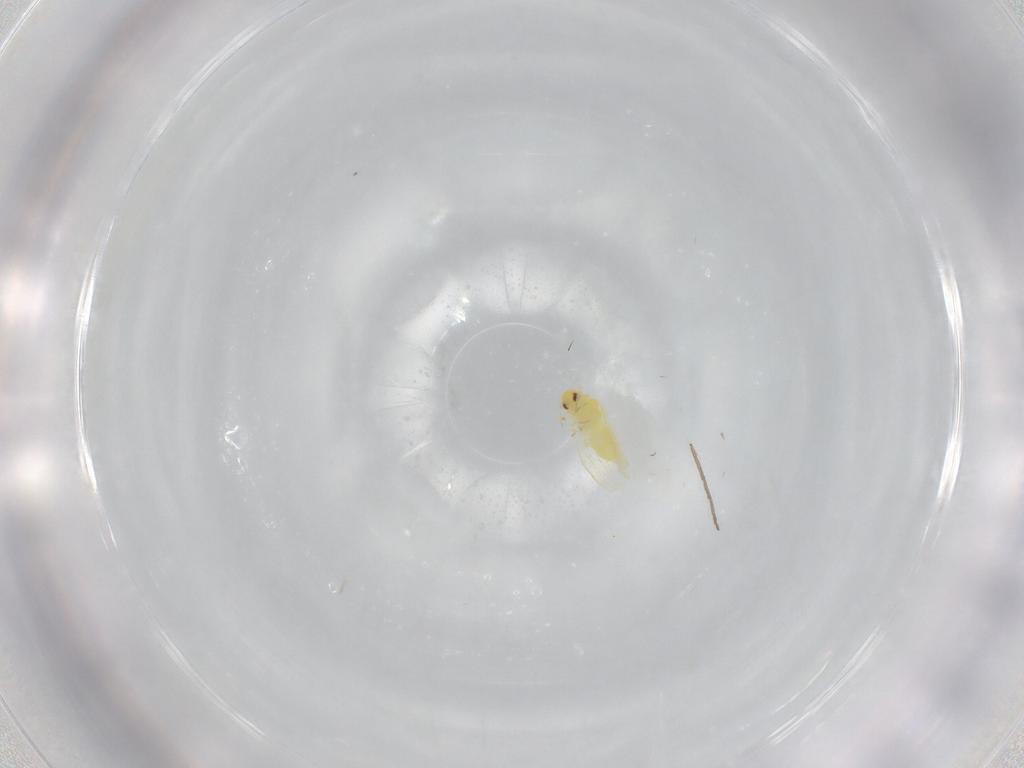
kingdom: Animalia
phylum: Arthropoda
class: Insecta
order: Hemiptera
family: Aleyrodidae
